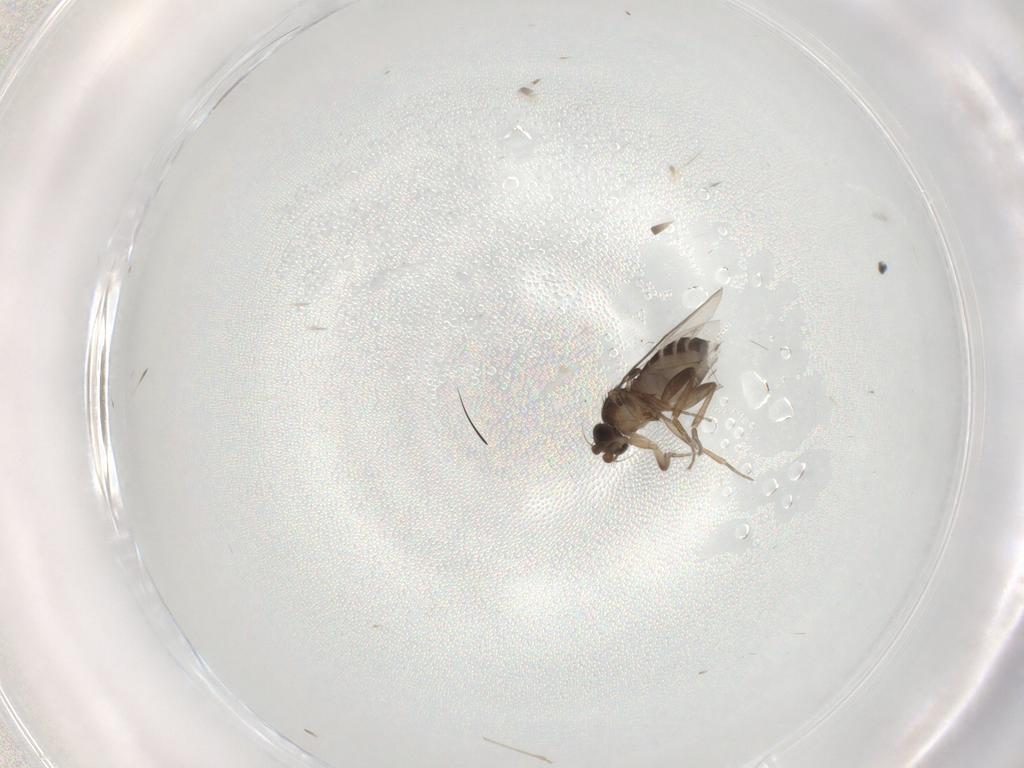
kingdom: Animalia
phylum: Arthropoda
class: Insecta
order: Diptera
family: Phoridae
